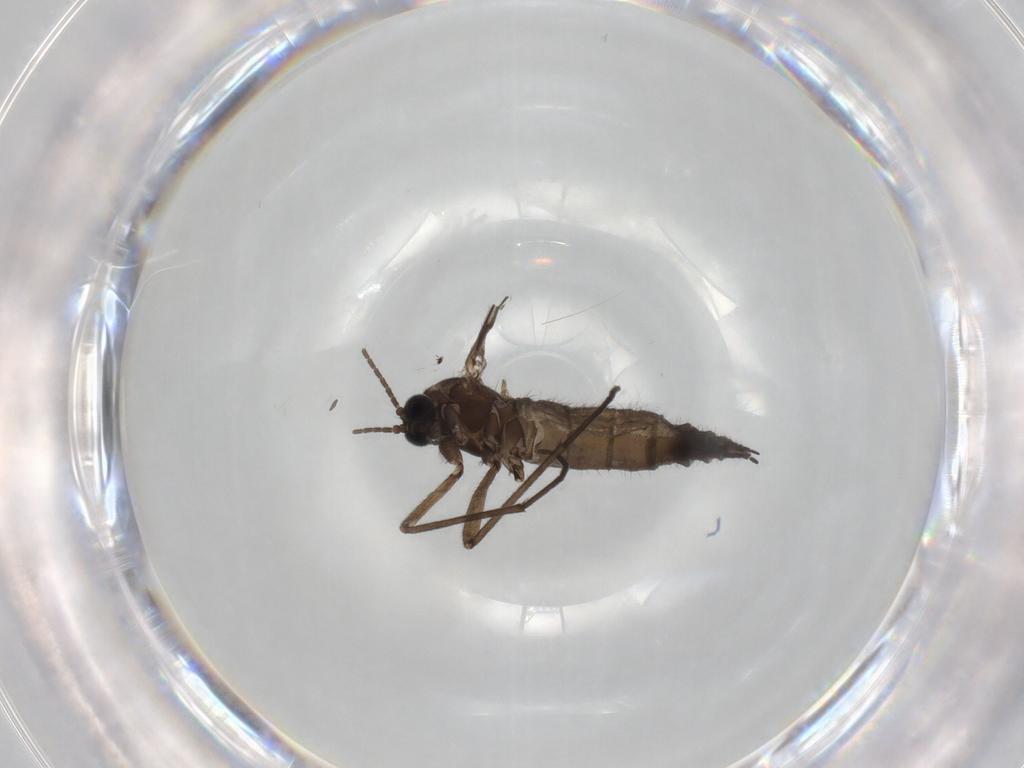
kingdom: Animalia
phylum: Arthropoda
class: Insecta
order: Diptera
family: Sciaridae
